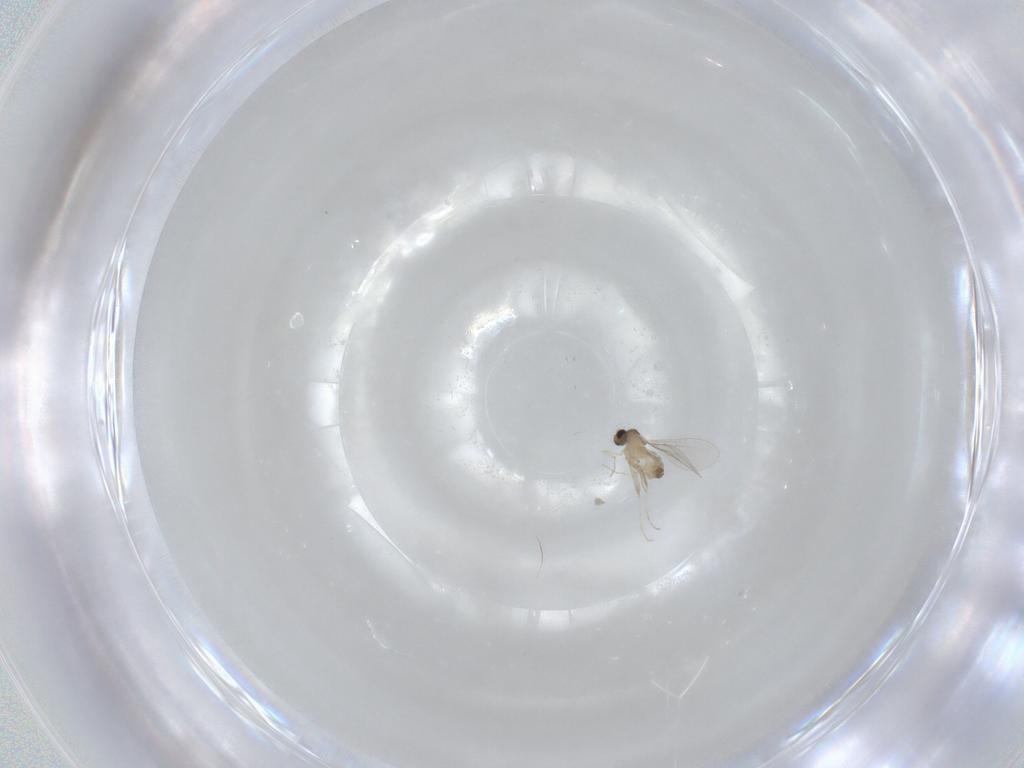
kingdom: Animalia
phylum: Arthropoda
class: Insecta
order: Diptera
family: Cecidomyiidae
